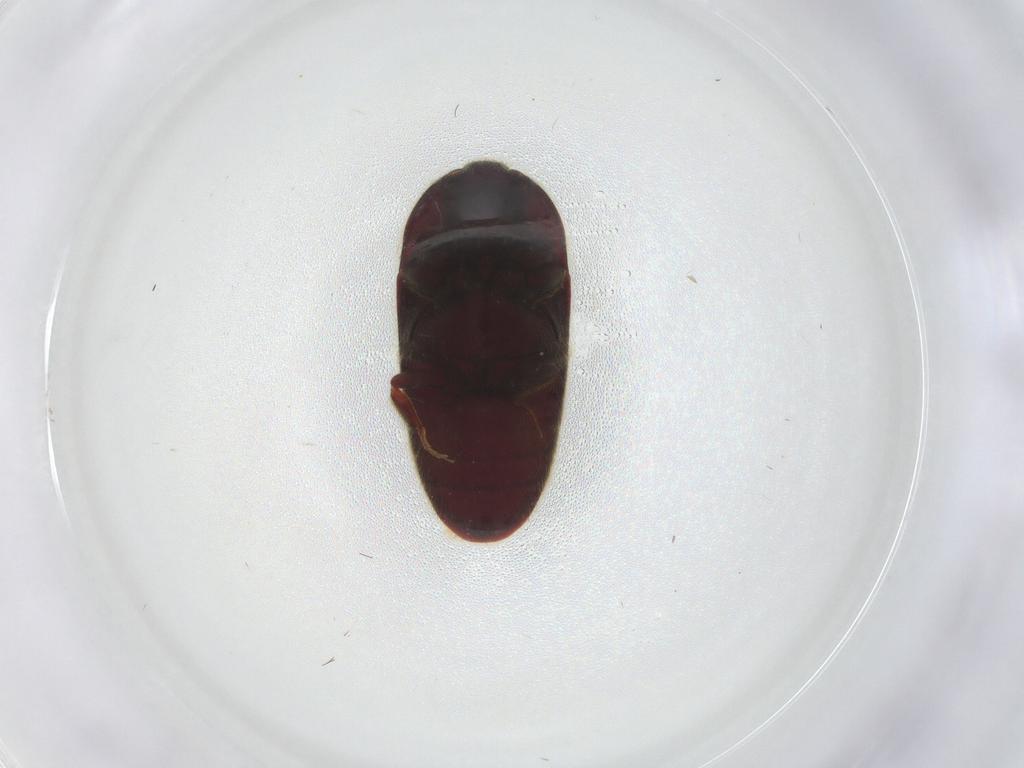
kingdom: Animalia
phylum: Arthropoda
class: Insecta
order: Coleoptera
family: Throscidae
